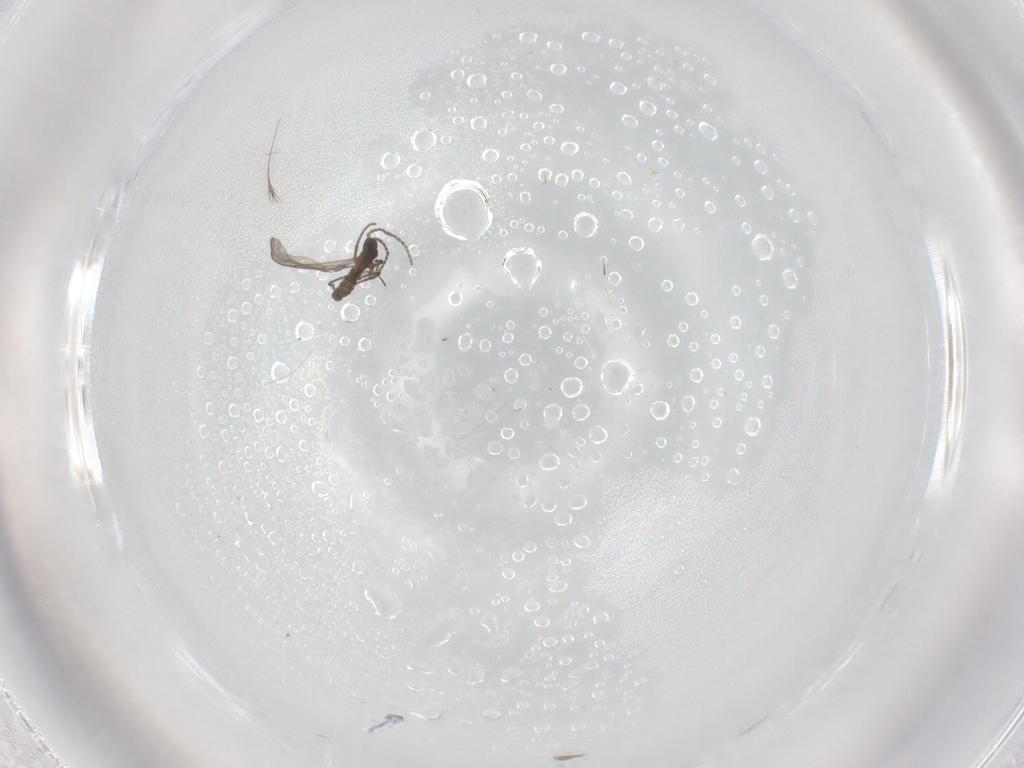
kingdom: Animalia
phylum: Arthropoda
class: Insecta
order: Diptera
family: Sciaridae
